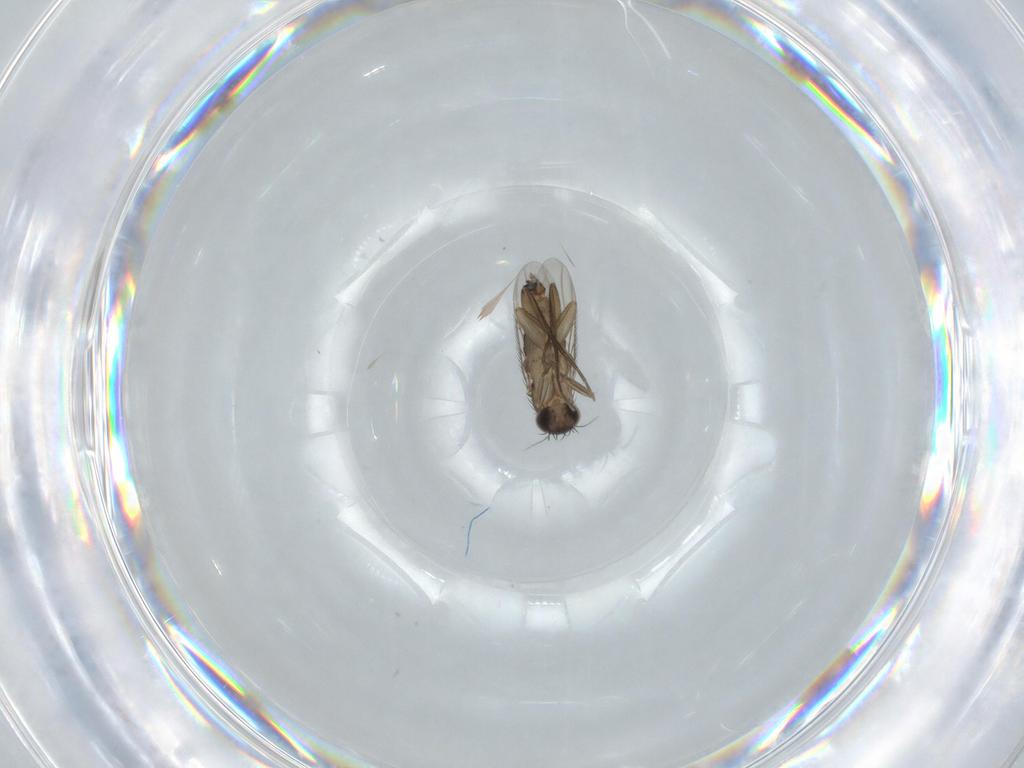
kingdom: Animalia
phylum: Arthropoda
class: Insecta
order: Diptera
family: Phoridae
